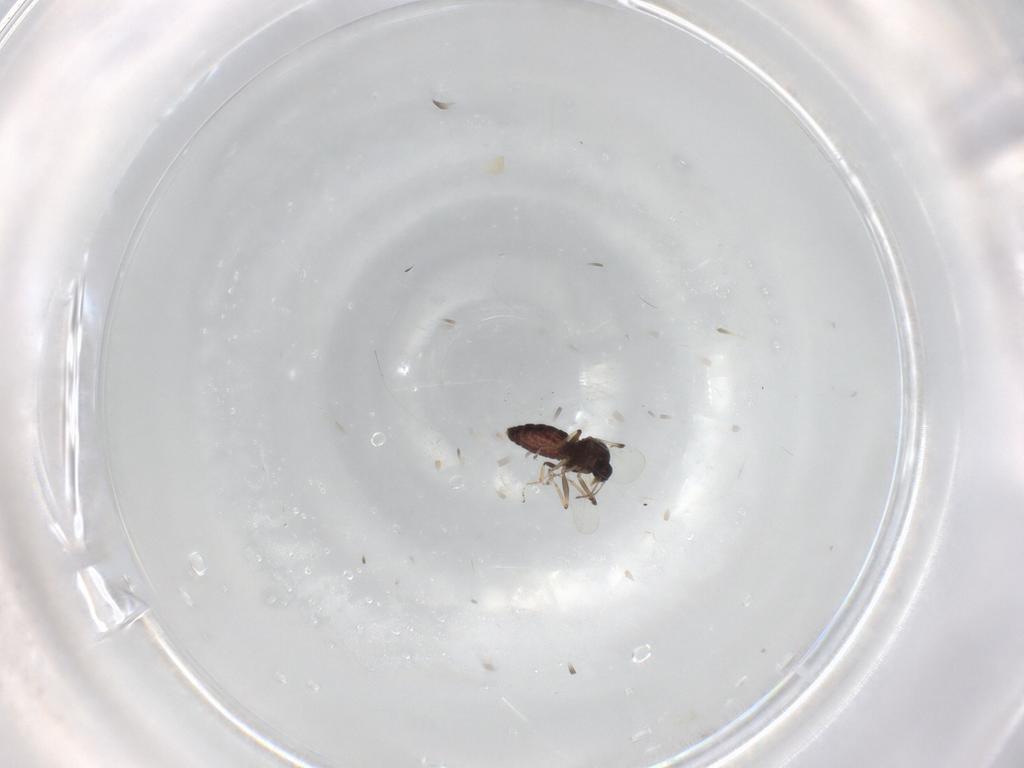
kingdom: Animalia
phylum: Arthropoda
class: Insecta
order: Diptera
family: Ceratopogonidae
